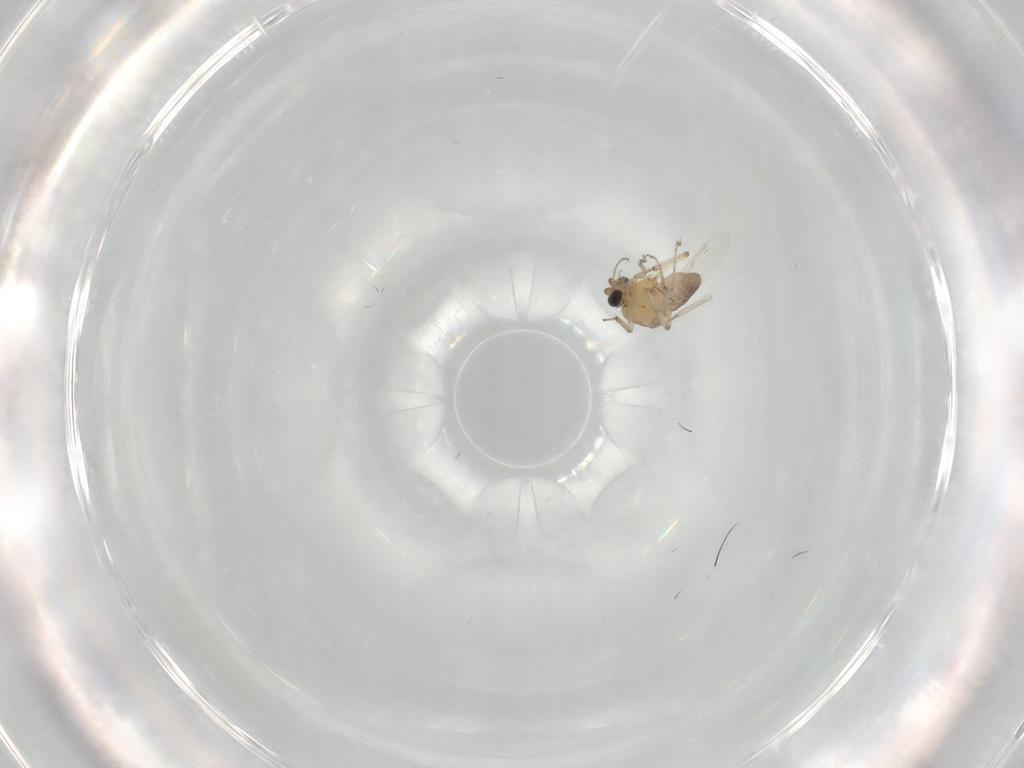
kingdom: Animalia
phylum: Arthropoda
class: Insecta
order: Diptera
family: Ceratopogonidae
